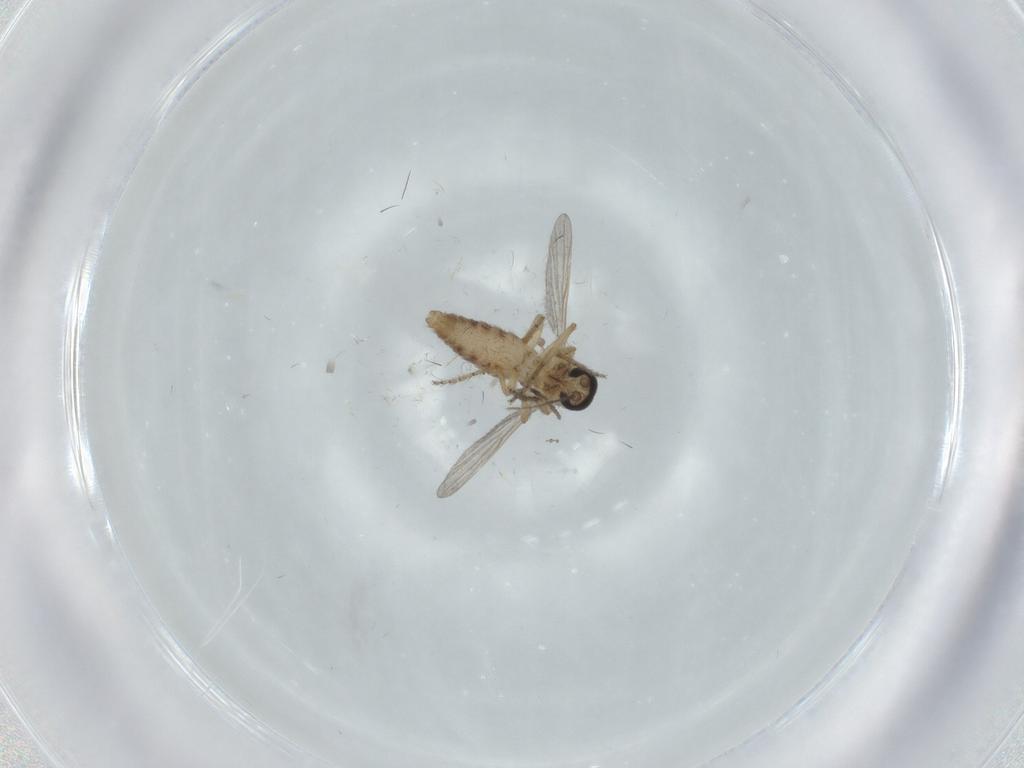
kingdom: Animalia
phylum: Arthropoda
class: Insecta
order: Diptera
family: Ceratopogonidae
